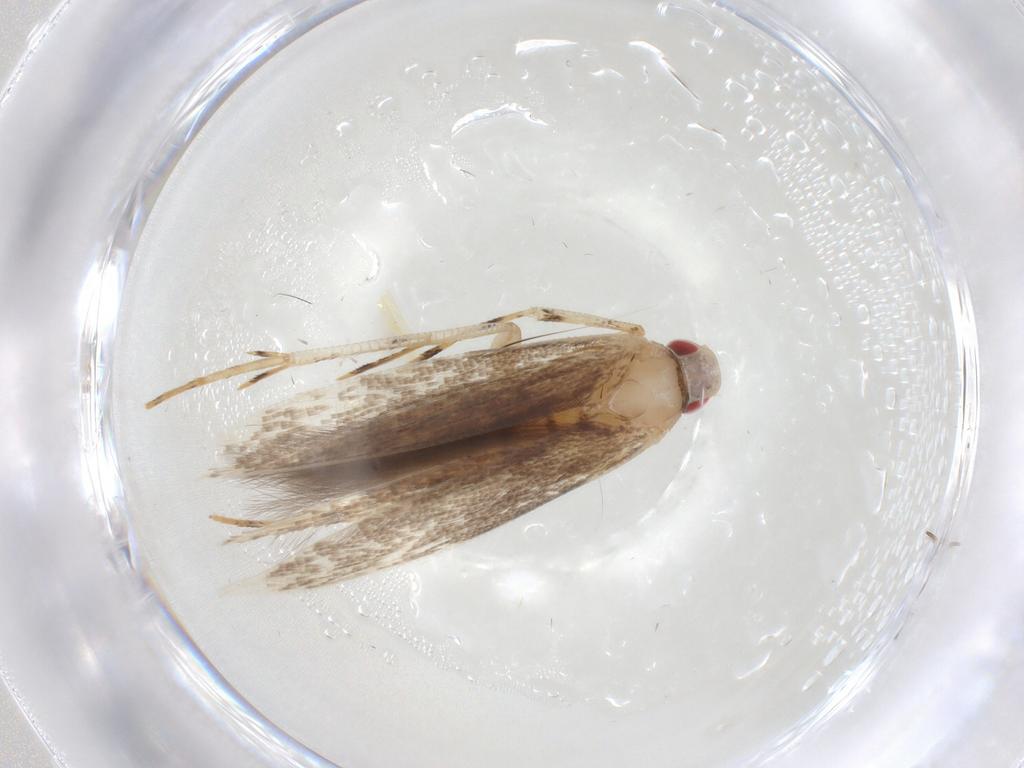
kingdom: Animalia
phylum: Arthropoda
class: Insecta
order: Lepidoptera
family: Cosmopterigidae
